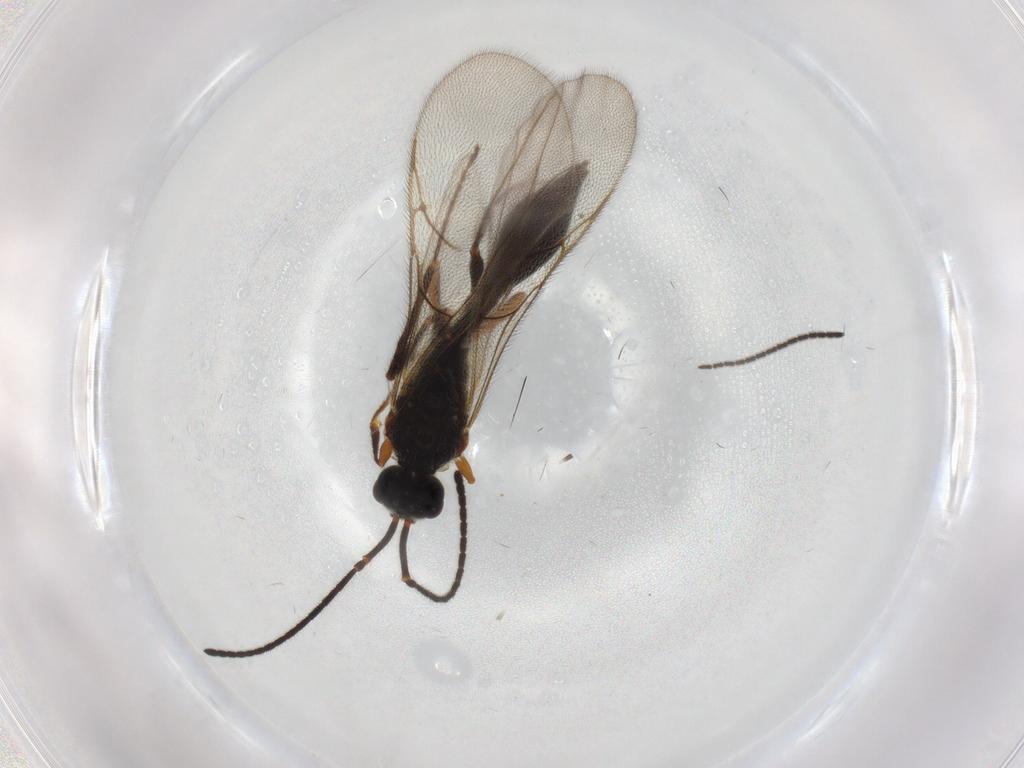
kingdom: Animalia
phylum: Arthropoda
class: Insecta
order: Hymenoptera
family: Diapriidae
